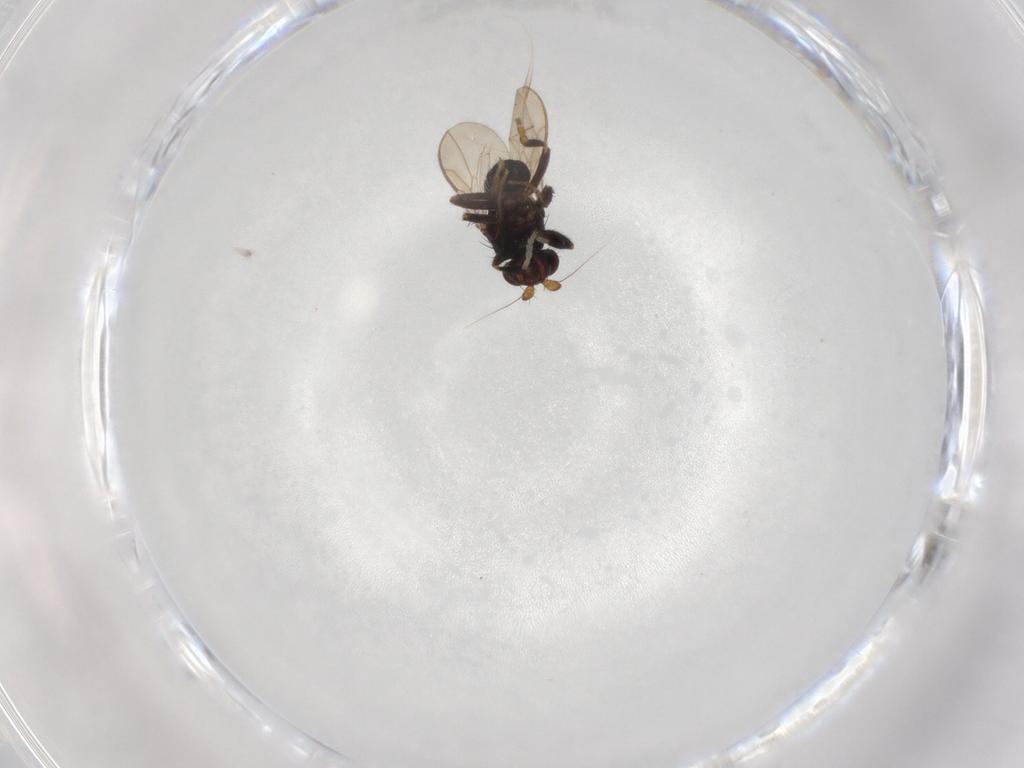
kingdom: Animalia
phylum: Arthropoda
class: Insecta
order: Diptera
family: Sphaeroceridae
